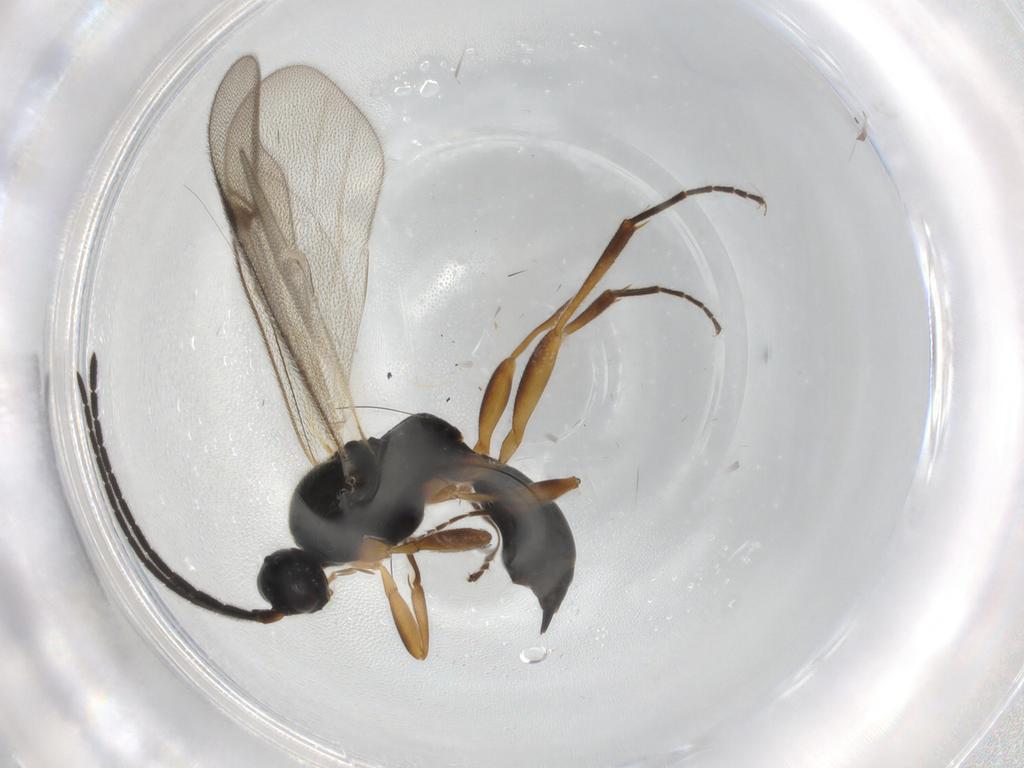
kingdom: Animalia
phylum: Arthropoda
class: Insecta
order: Hymenoptera
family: Proctotrupidae
